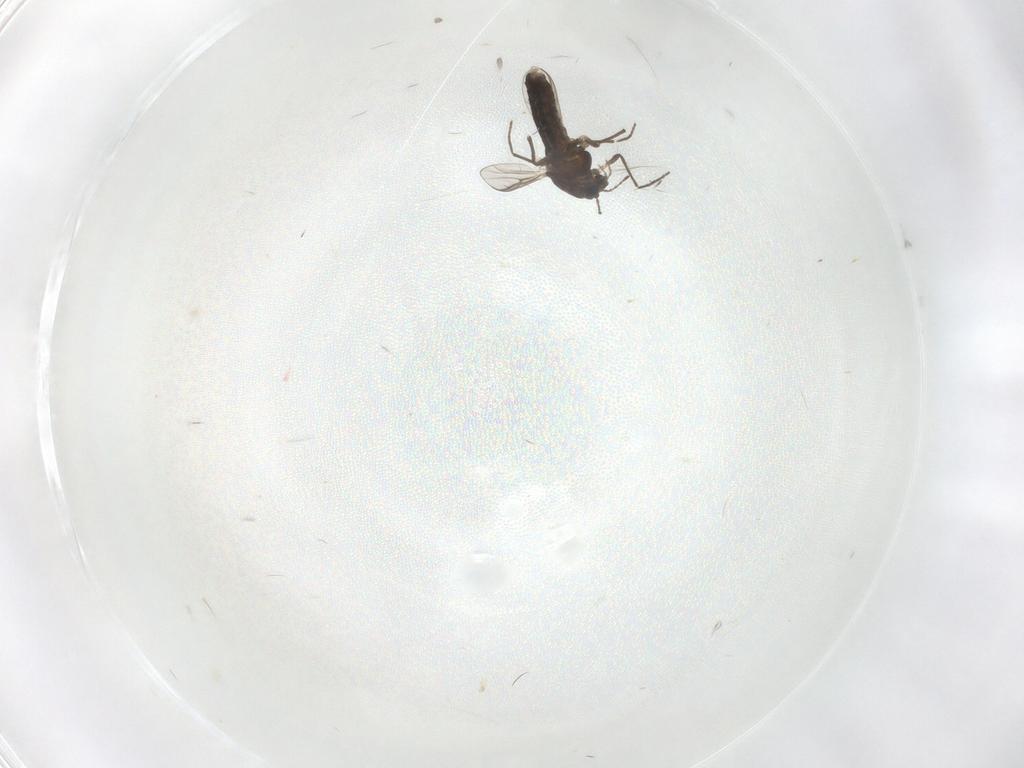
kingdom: Animalia
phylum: Arthropoda
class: Insecta
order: Diptera
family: Chironomidae
